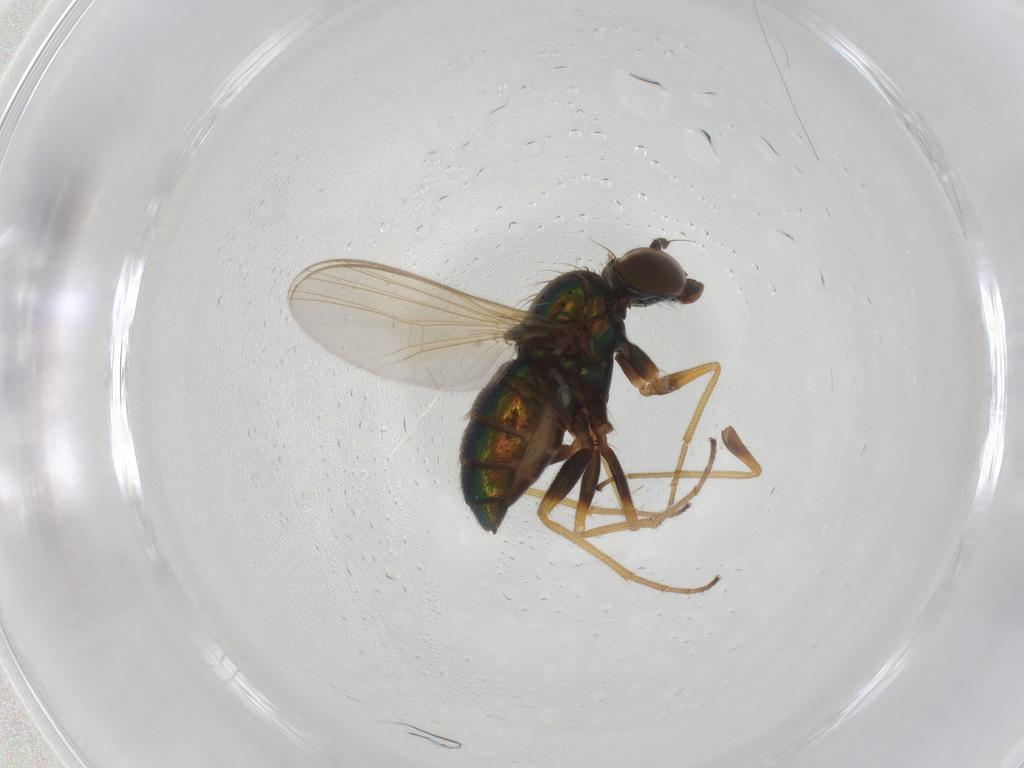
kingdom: Animalia
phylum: Arthropoda
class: Insecta
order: Diptera
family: Dolichopodidae
